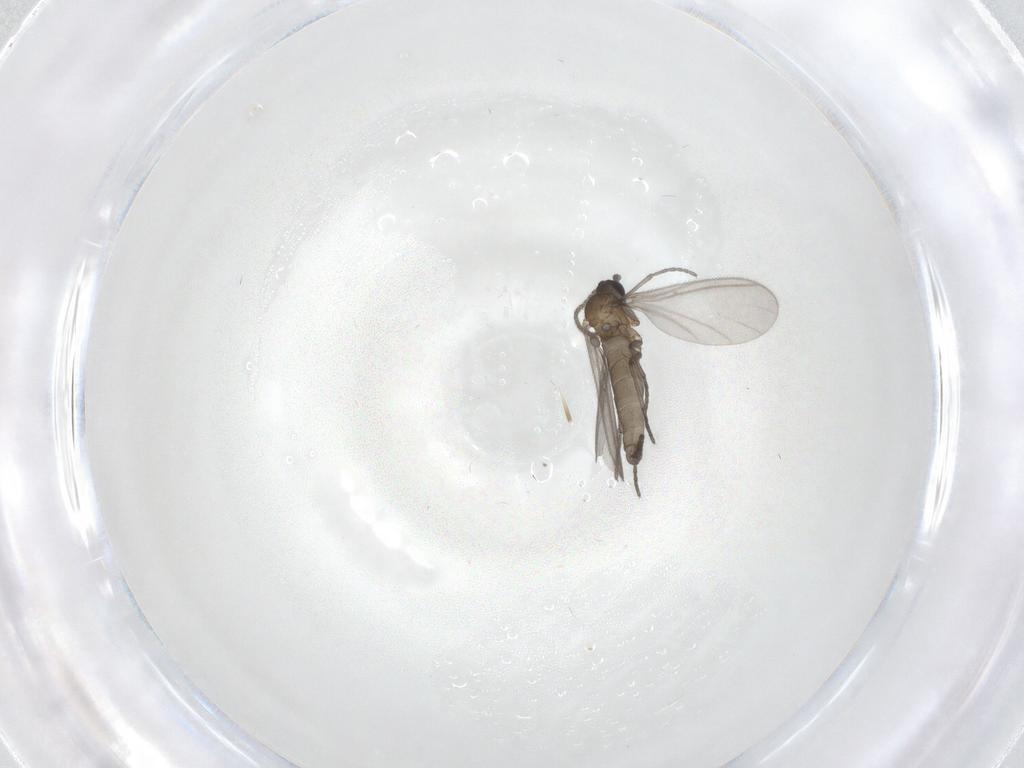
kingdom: Animalia
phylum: Arthropoda
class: Insecta
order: Diptera
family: Sciaridae
